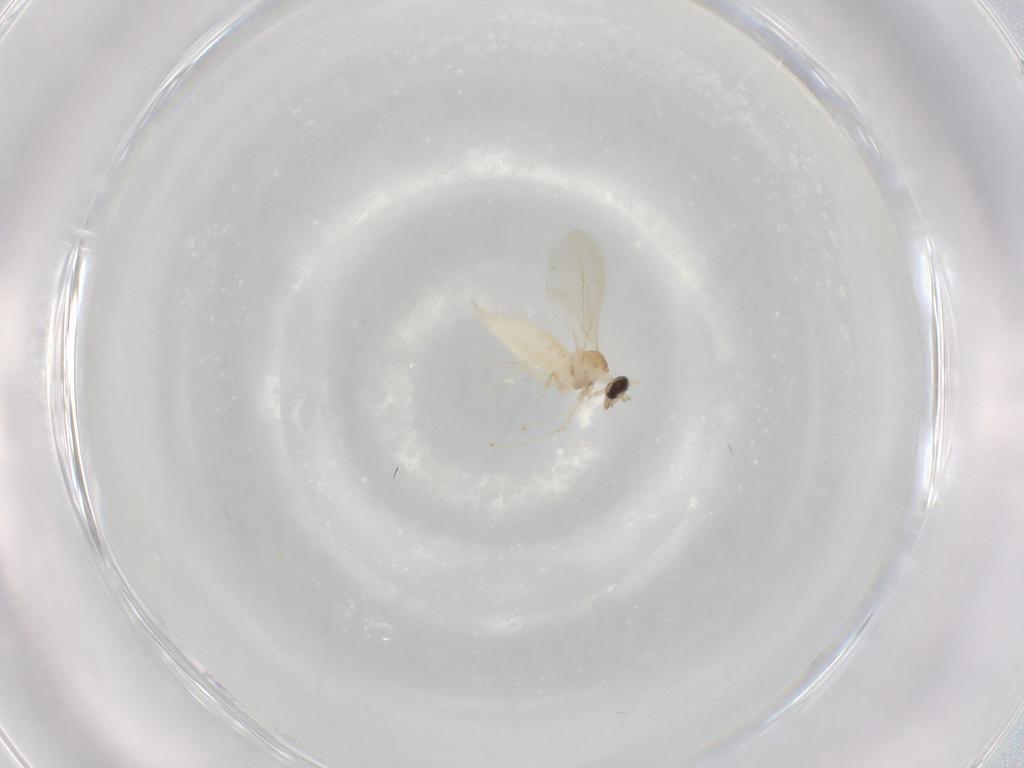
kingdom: Animalia
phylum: Arthropoda
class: Insecta
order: Diptera
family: Cecidomyiidae
